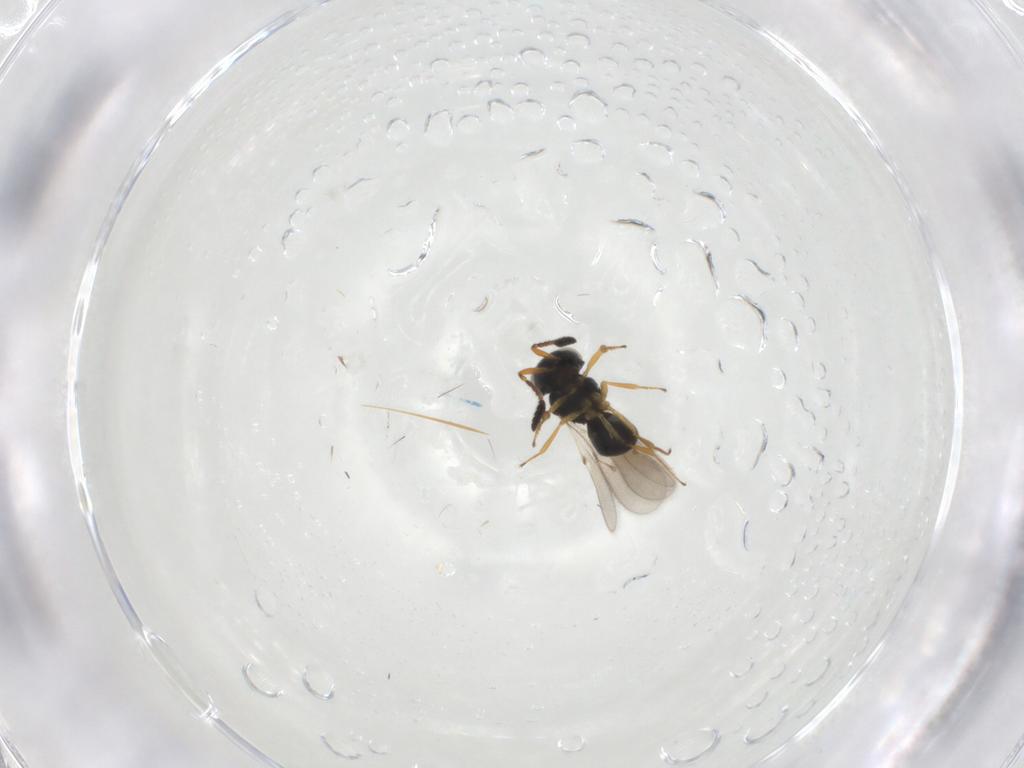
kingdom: Animalia
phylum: Arthropoda
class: Insecta
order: Hymenoptera
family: Scelionidae
